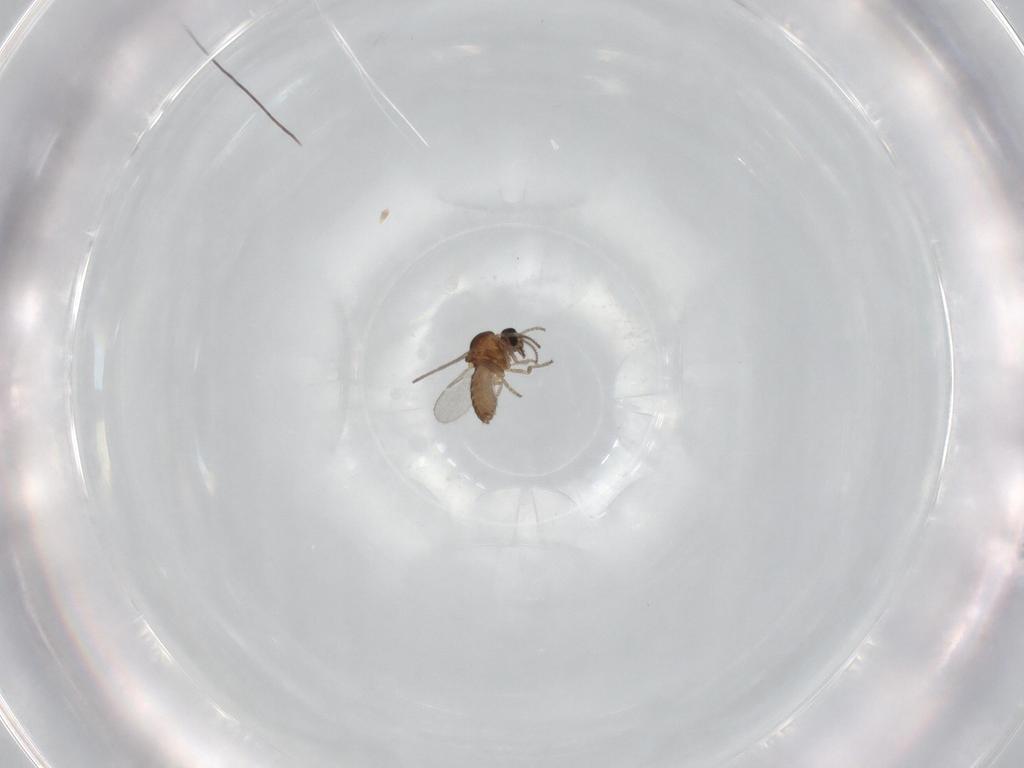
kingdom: Animalia
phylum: Arthropoda
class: Insecta
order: Diptera
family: Ceratopogonidae
